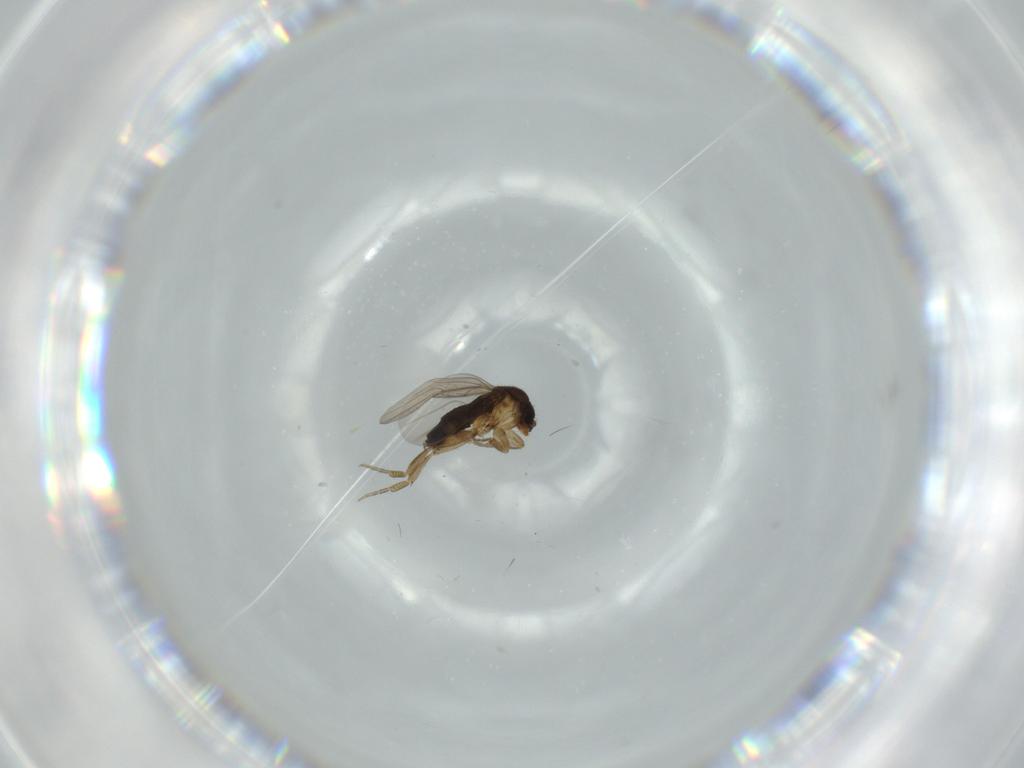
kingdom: Animalia
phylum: Arthropoda
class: Insecta
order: Diptera
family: Phoridae
